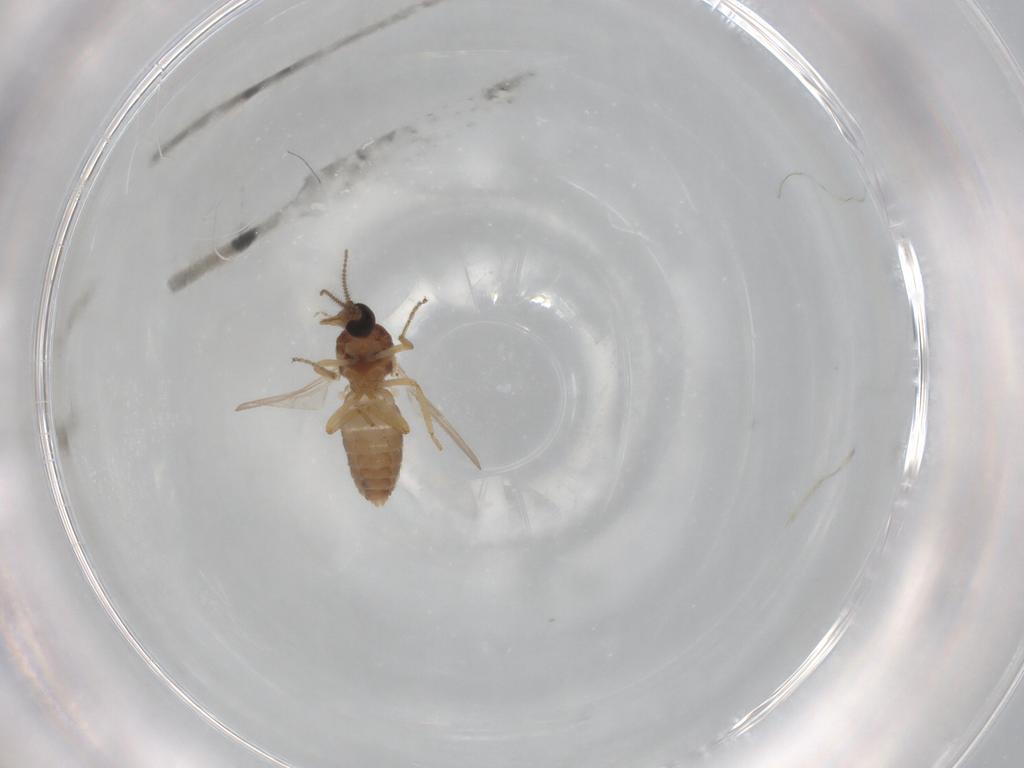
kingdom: Animalia
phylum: Arthropoda
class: Insecta
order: Diptera
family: Ceratopogonidae
